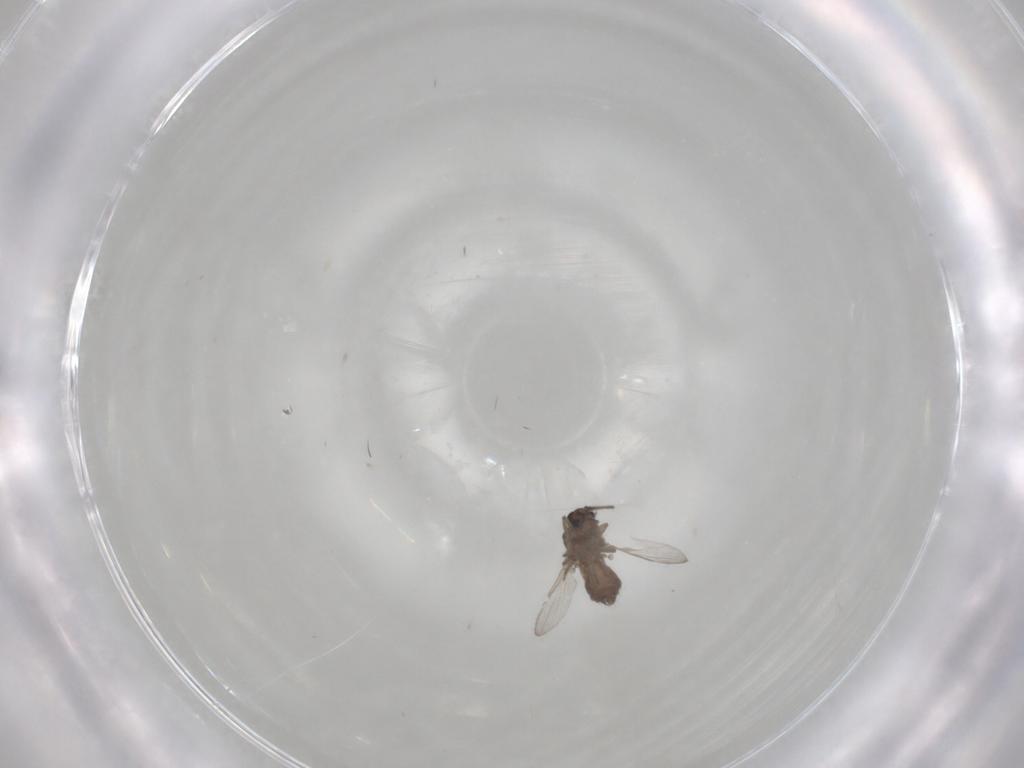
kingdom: Animalia
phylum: Arthropoda
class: Insecta
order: Diptera
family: Ceratopogonidae
